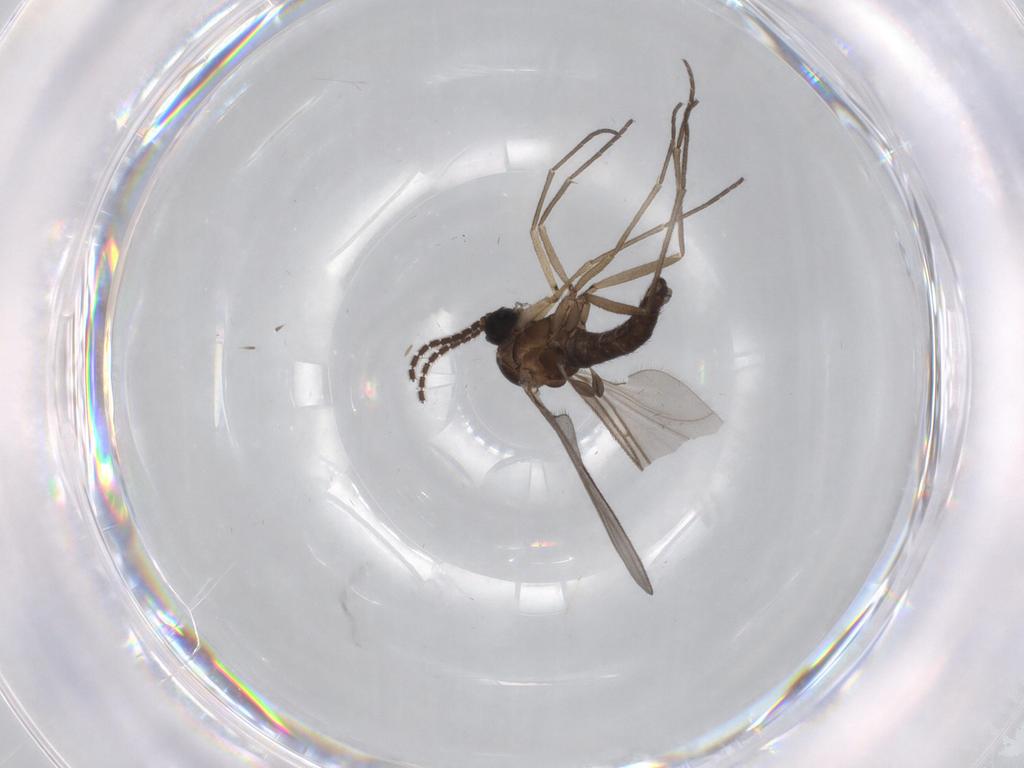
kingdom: Animalia
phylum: Arthropoda
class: Insecta
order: Diptera
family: Sciaridae
